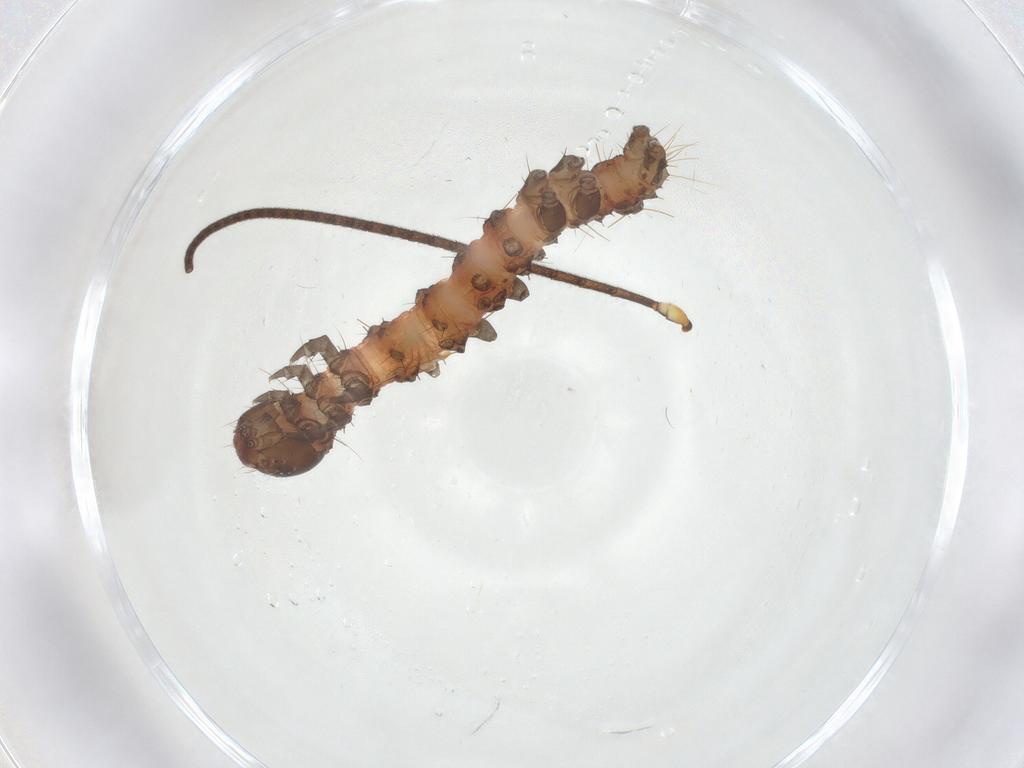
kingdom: Animalia
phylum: Arthropoda
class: Insecta
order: Lepidoptera
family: Erebidae
